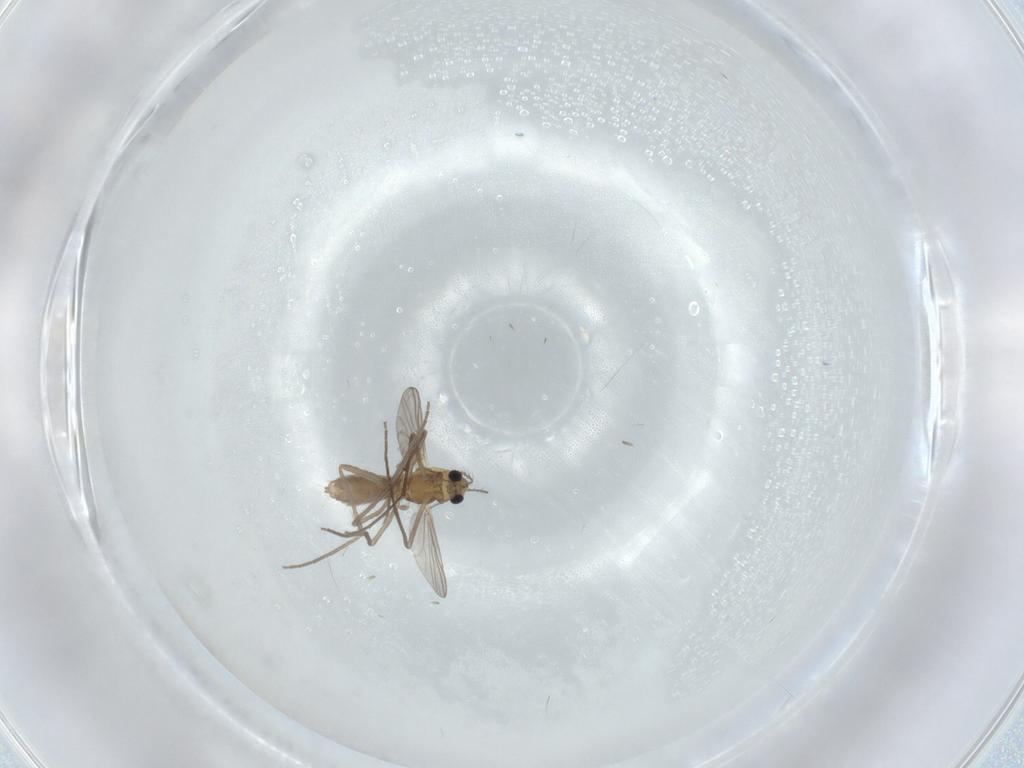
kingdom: Animalia
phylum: Arthropoda
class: Insecta
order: Diptera
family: Chironomidae
